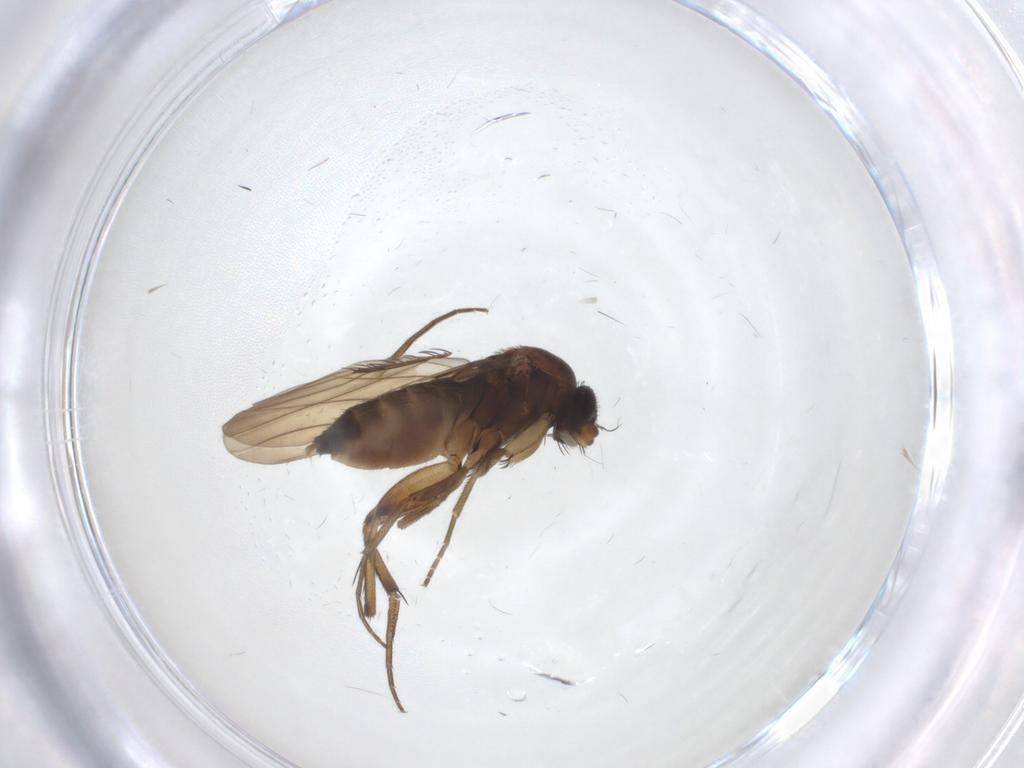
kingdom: Animalia
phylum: Arthropoda
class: Insecta
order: Diptera
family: Phoridae
